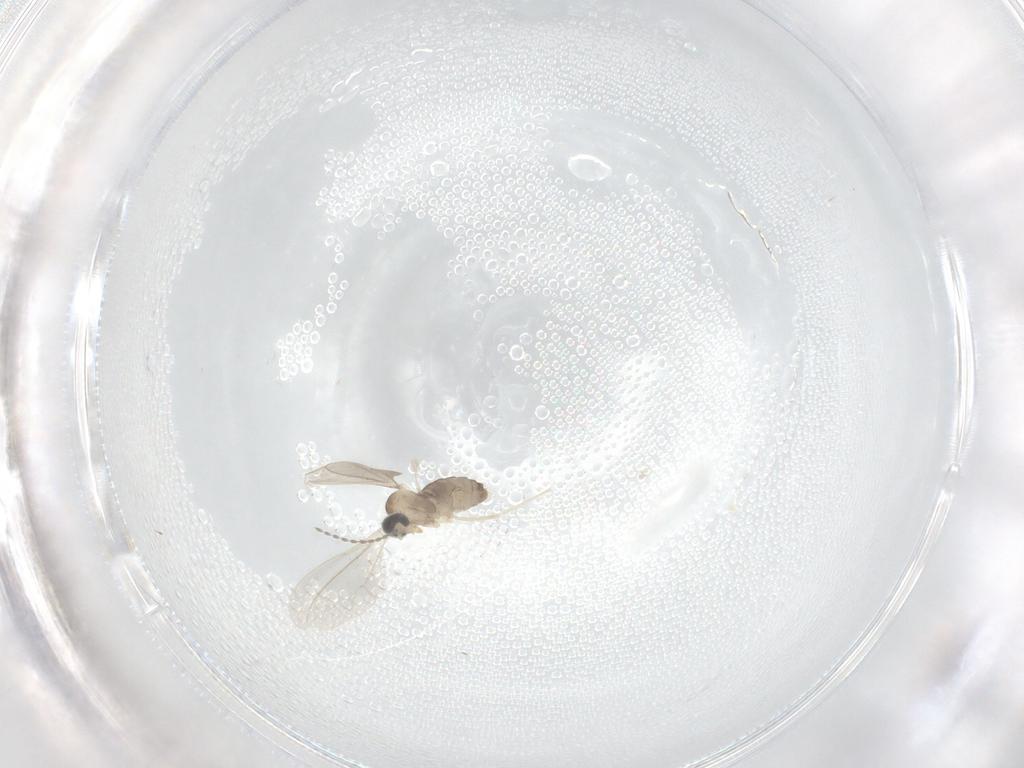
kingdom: Animalia
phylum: Arthropoda
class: Insecta
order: Diptera
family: Cecidomyiidae
